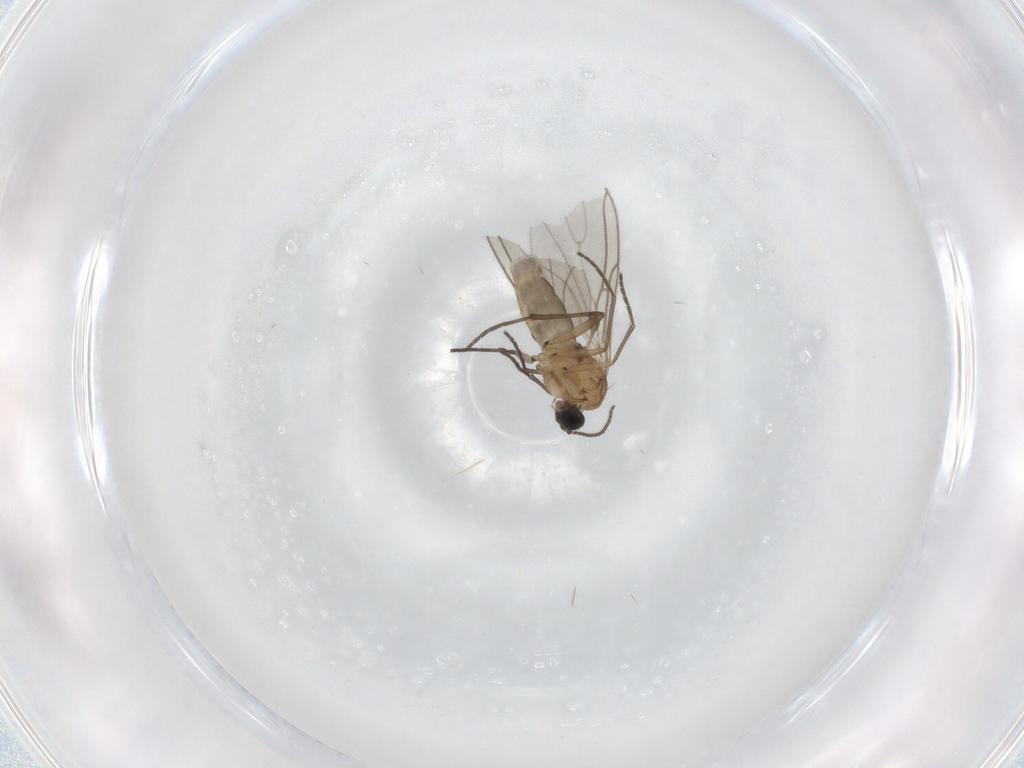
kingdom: Animalia
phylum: Arthropoda
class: Insecta
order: Diptera
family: Sciaridae
